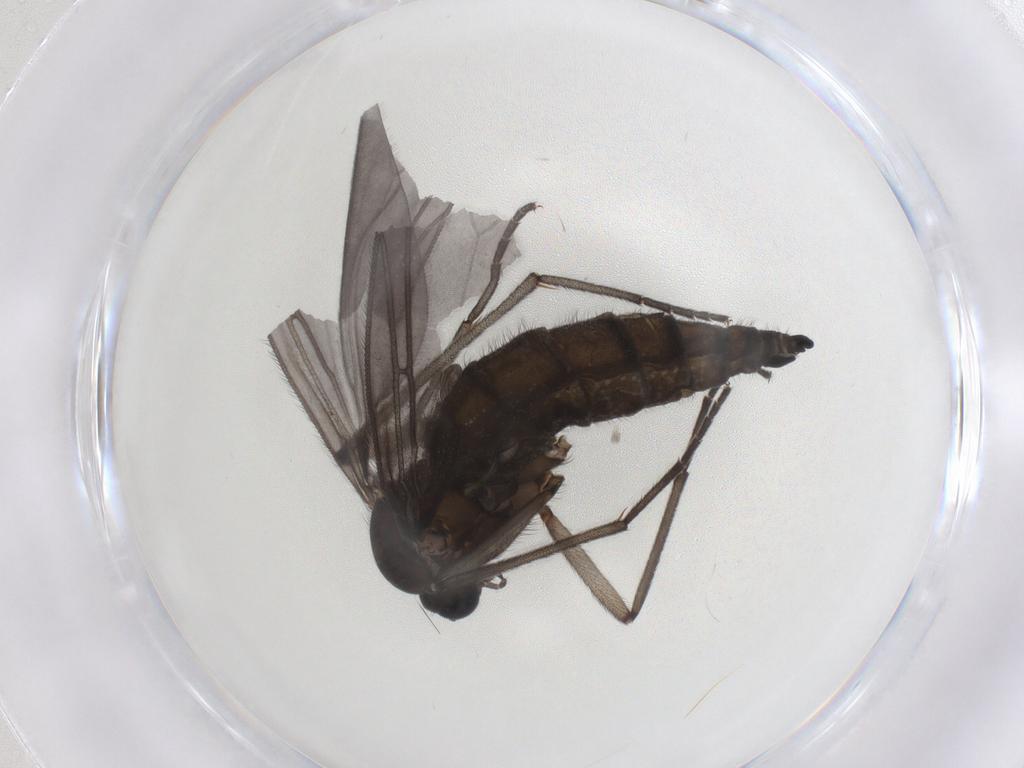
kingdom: Animalia
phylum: Arthropoda
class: Insecta
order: Diptera
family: Sciaridae
